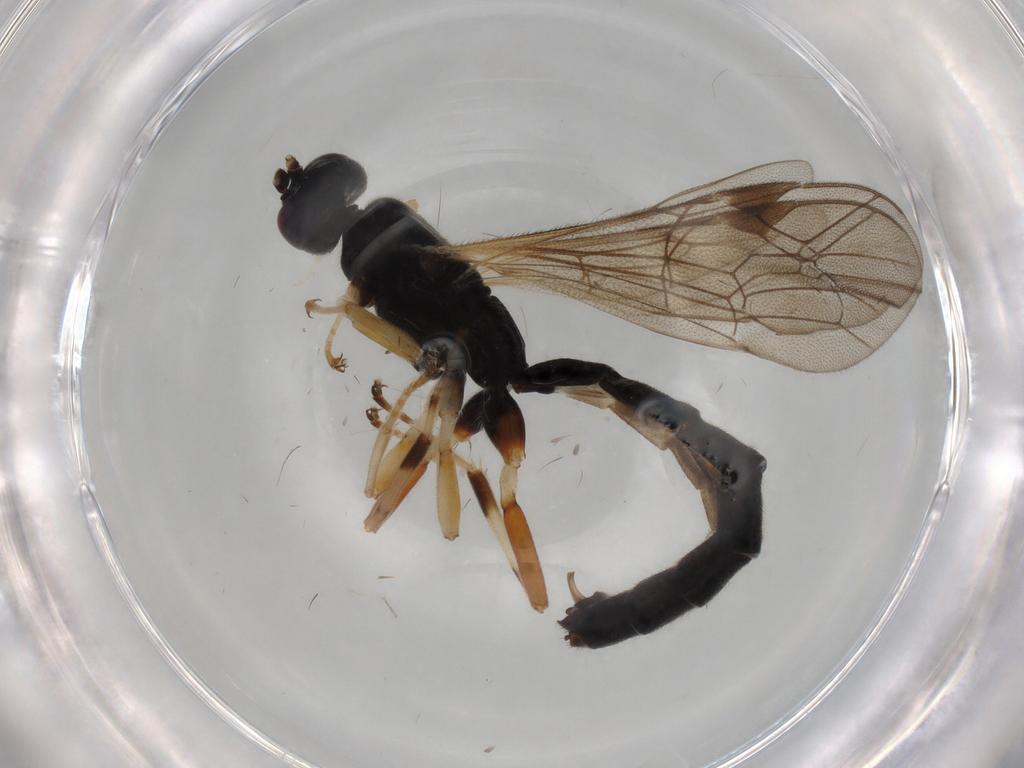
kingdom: Animalia
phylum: Arthropoda
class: Insecta
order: Hymenoptera
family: Ichneumonidae
